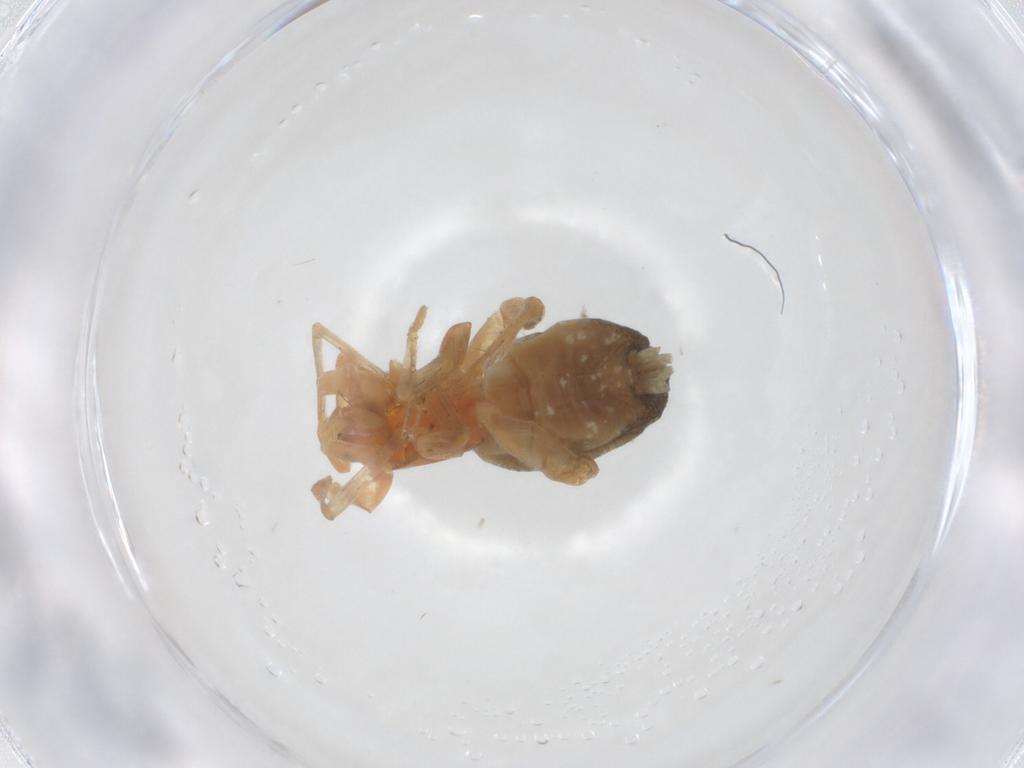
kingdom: Animalia
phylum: Arthropoda
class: Arachnida
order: Araneae
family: Corinnidae
